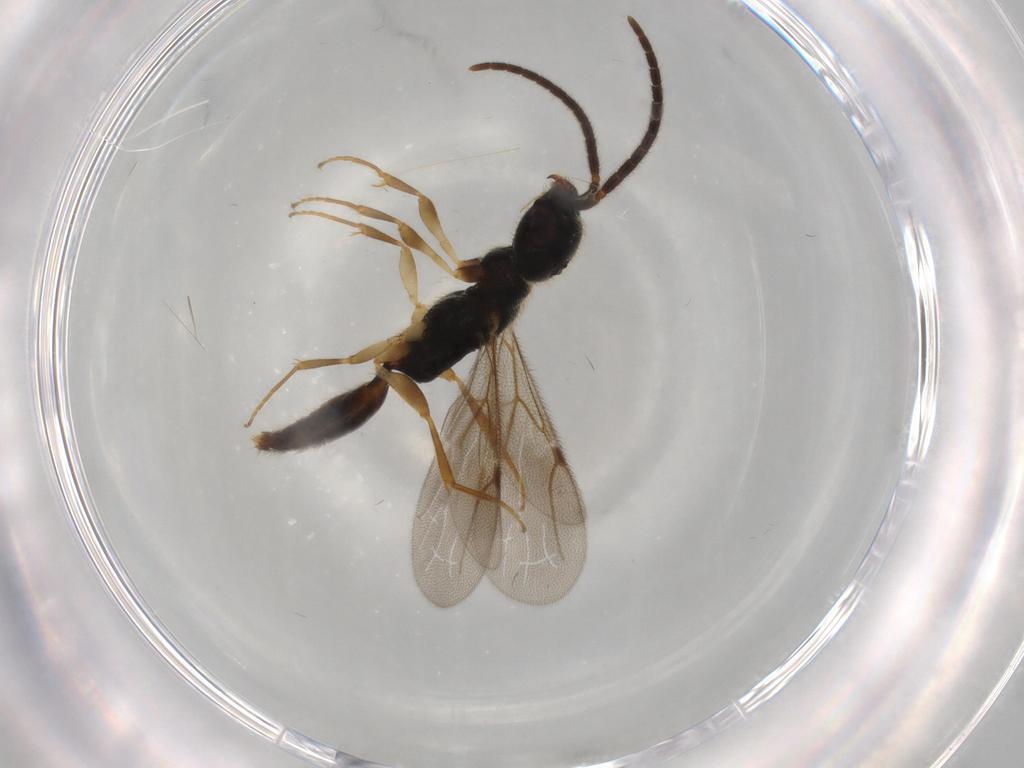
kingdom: Animalia
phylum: Arthropoda
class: Insecta
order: Hymenoptera
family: Bethylidae
